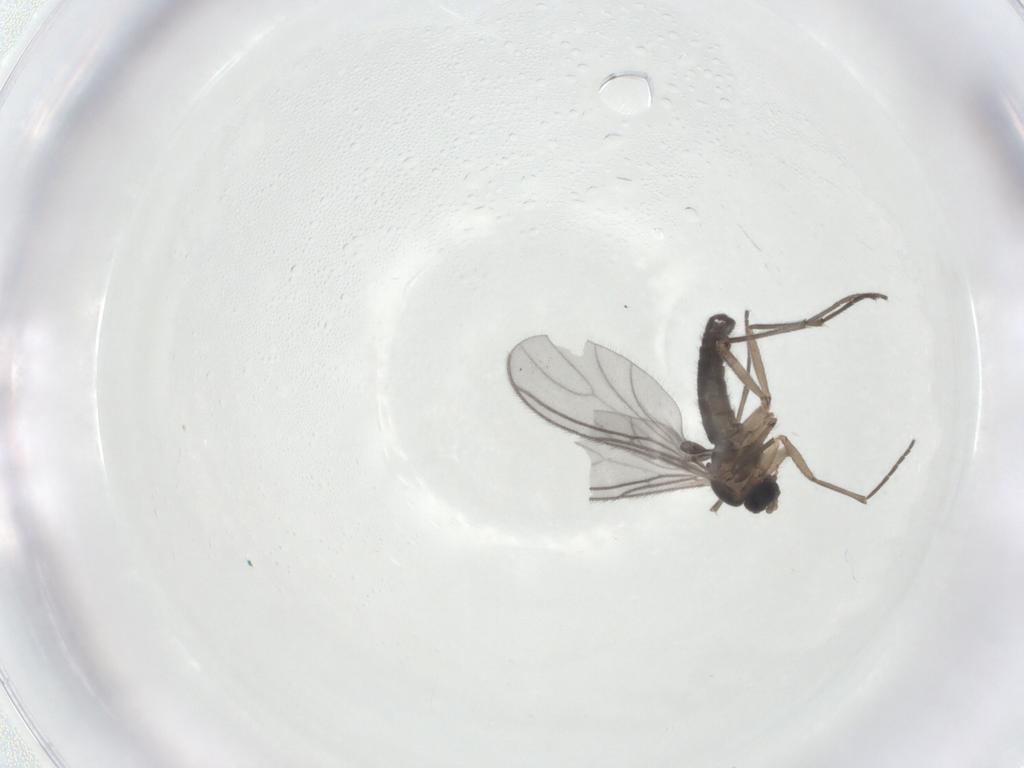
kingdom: Animalia
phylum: Arthropoda
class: Insecta
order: Diptera
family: Sciaridae
